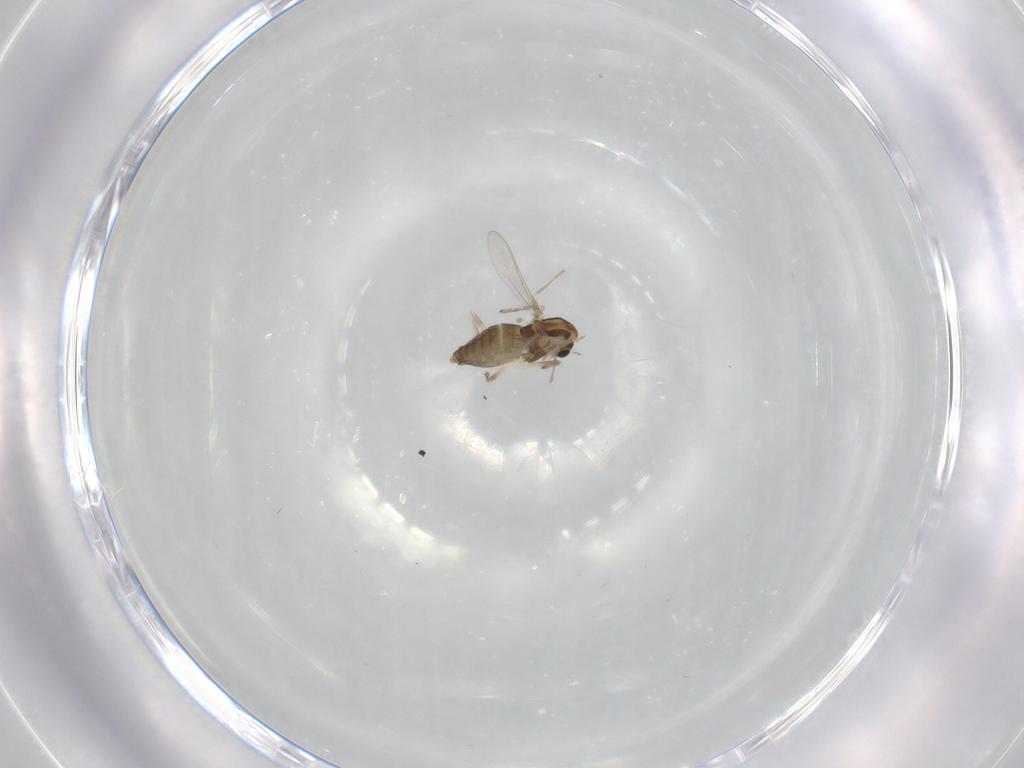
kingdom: Animalia
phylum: Arthropoda
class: Insecta
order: Diptera
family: Chironomidae
